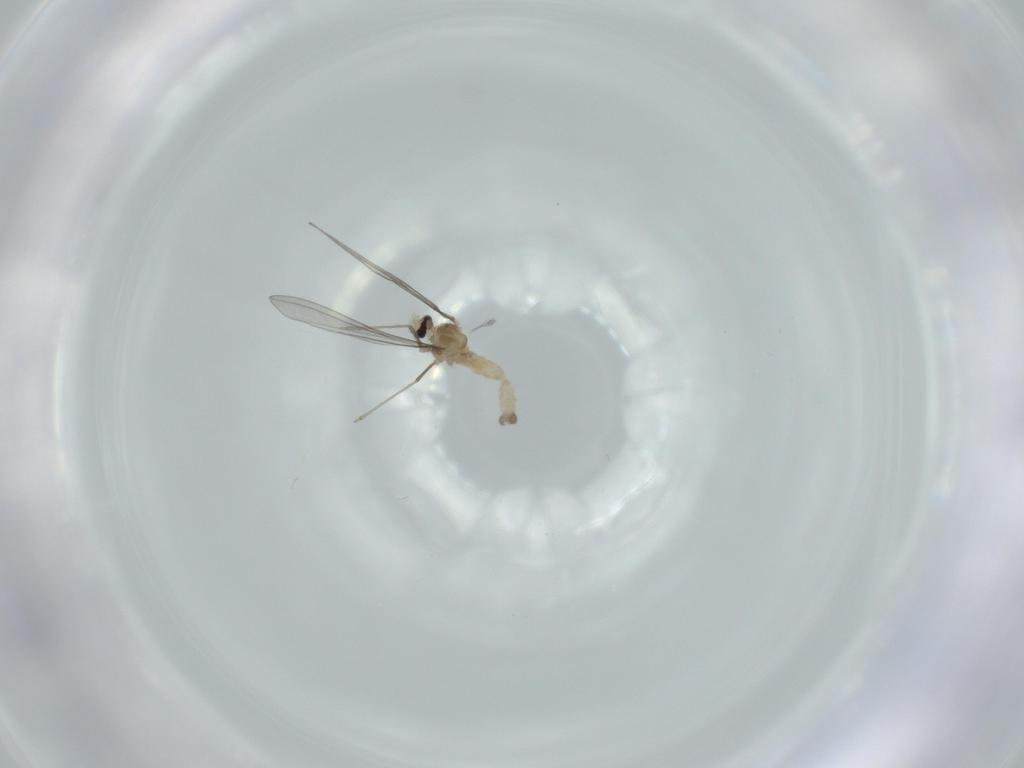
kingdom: Animalia
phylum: Arthropoda
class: Insecta
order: Diptera
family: Cecidomyiidae
